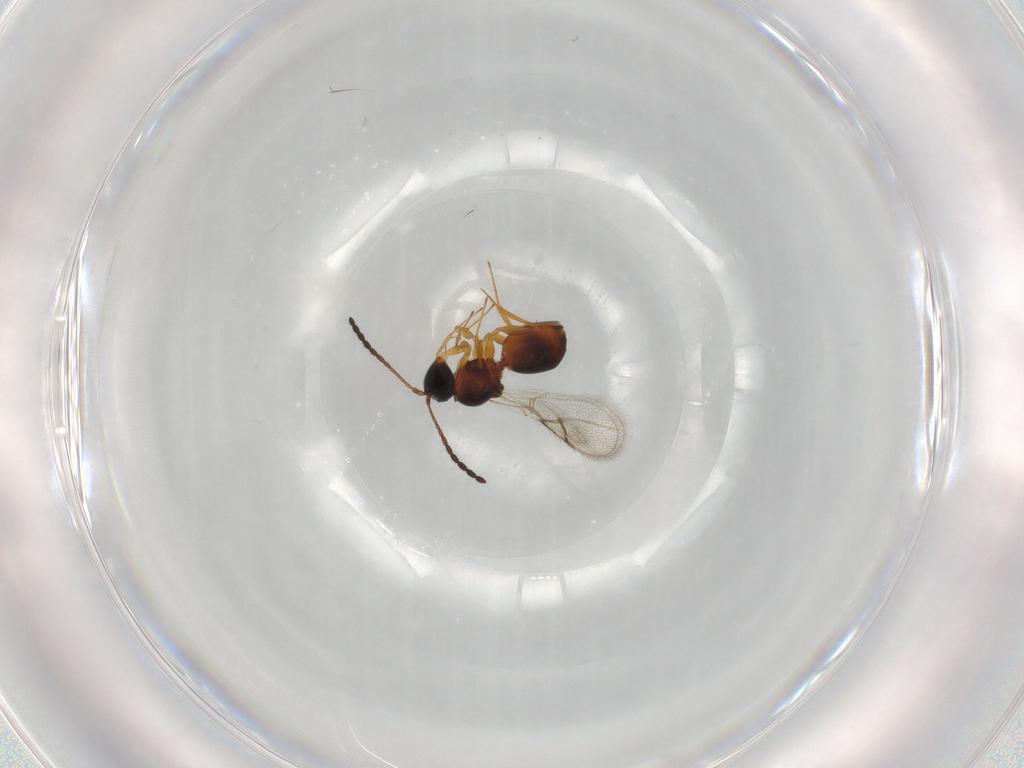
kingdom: Animalia
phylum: Arthropoda
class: Insecta
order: Hymenoptera
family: Figitidae
